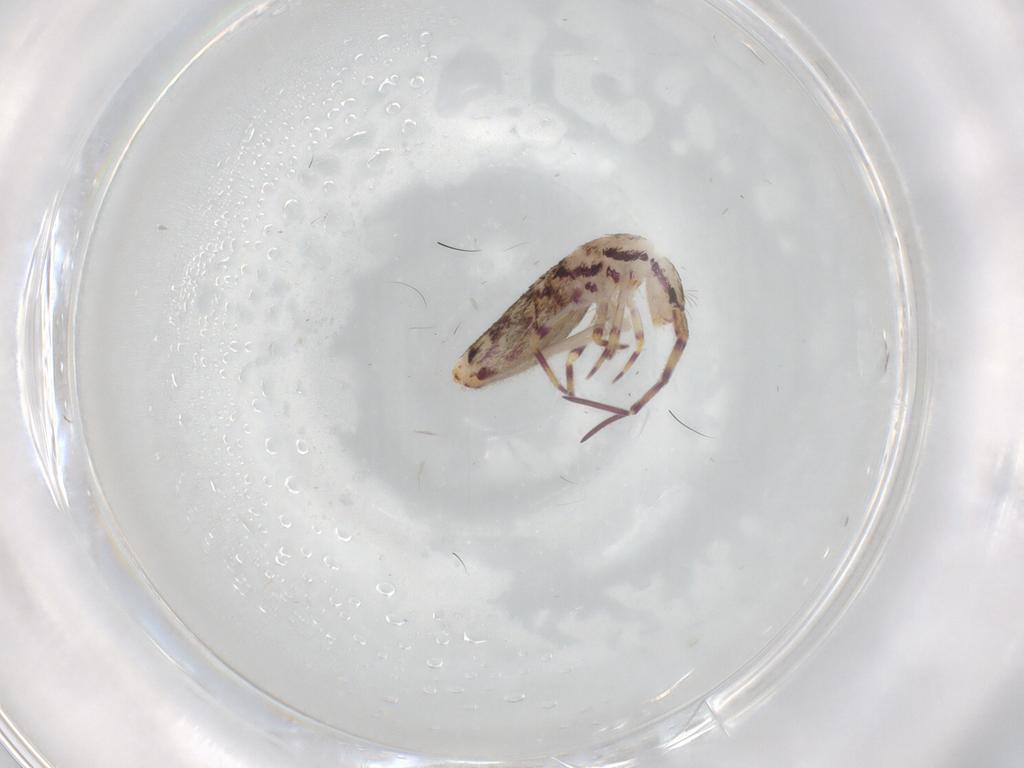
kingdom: Animalia
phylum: Arthropoda
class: Collembola
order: Entomobryomorpha
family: Entomobryidae
